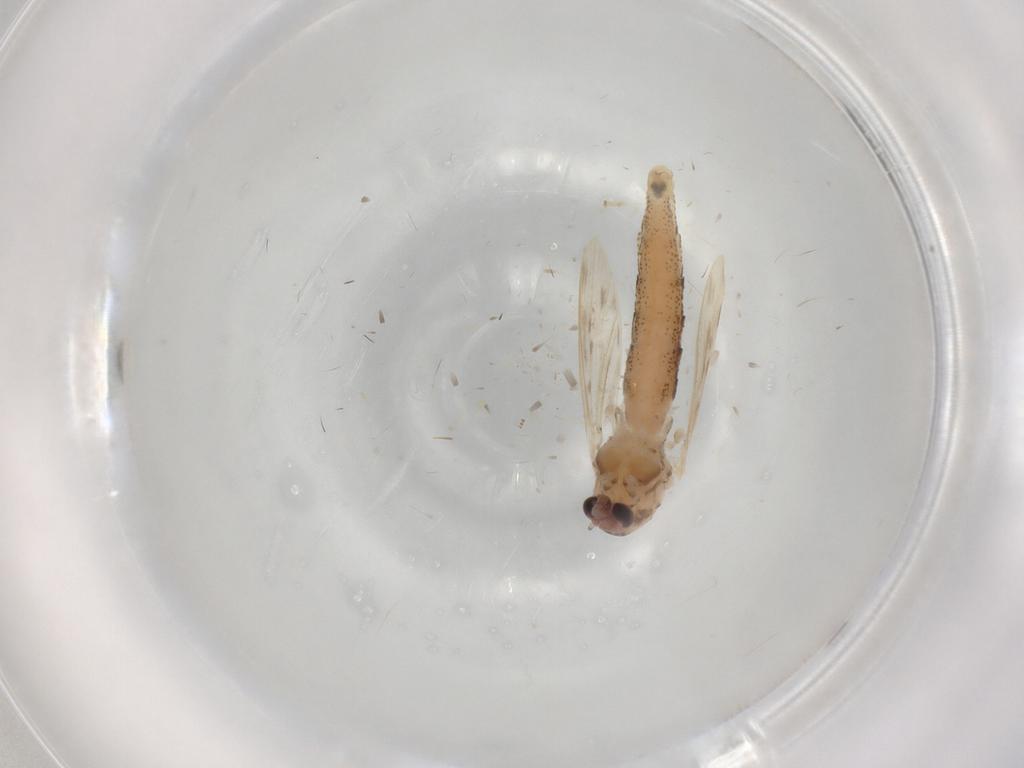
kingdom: Animalia
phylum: Arthropoda
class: Insecta
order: Diptera
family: Chaoboridae
